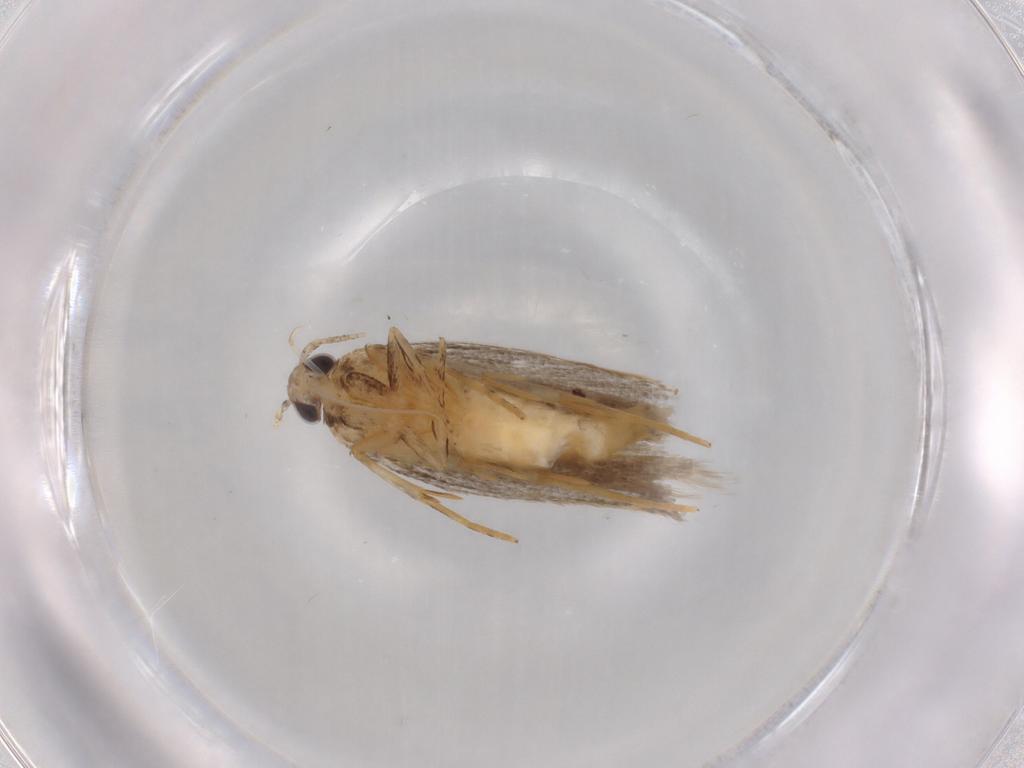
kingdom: Animalia
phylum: Arthropoda
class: Insecta
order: Lepidoptera
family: Autostichidae
